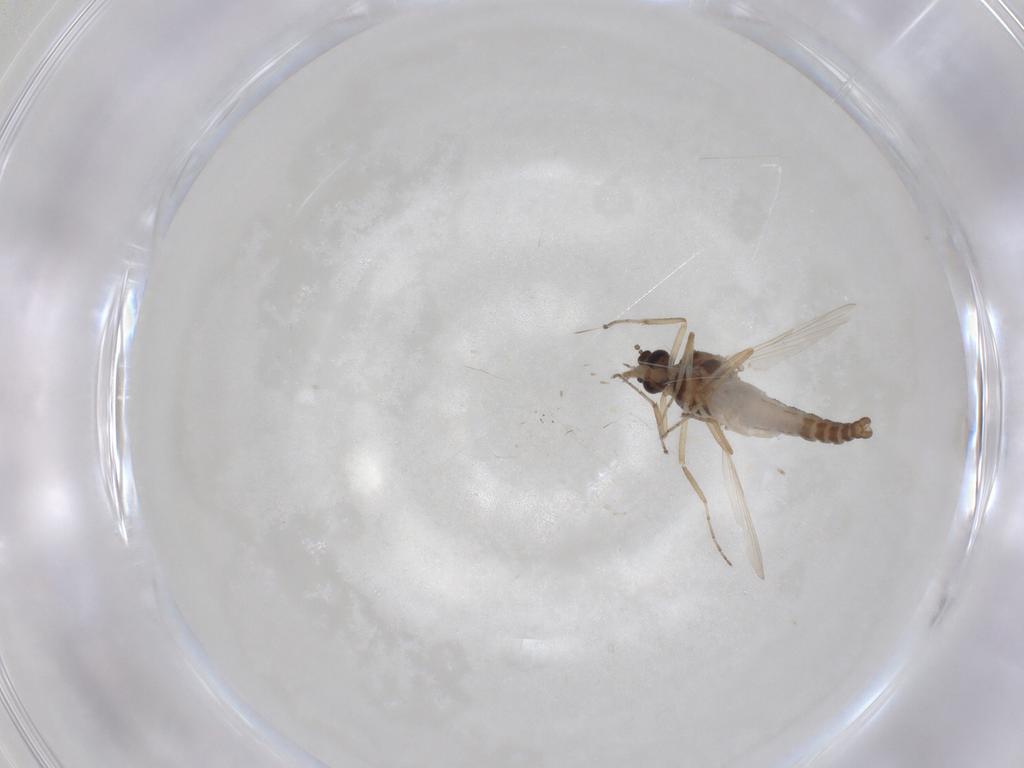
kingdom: Animalia
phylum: Arthropoda
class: Insecta
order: Diptera
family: Ceratopogonidae
